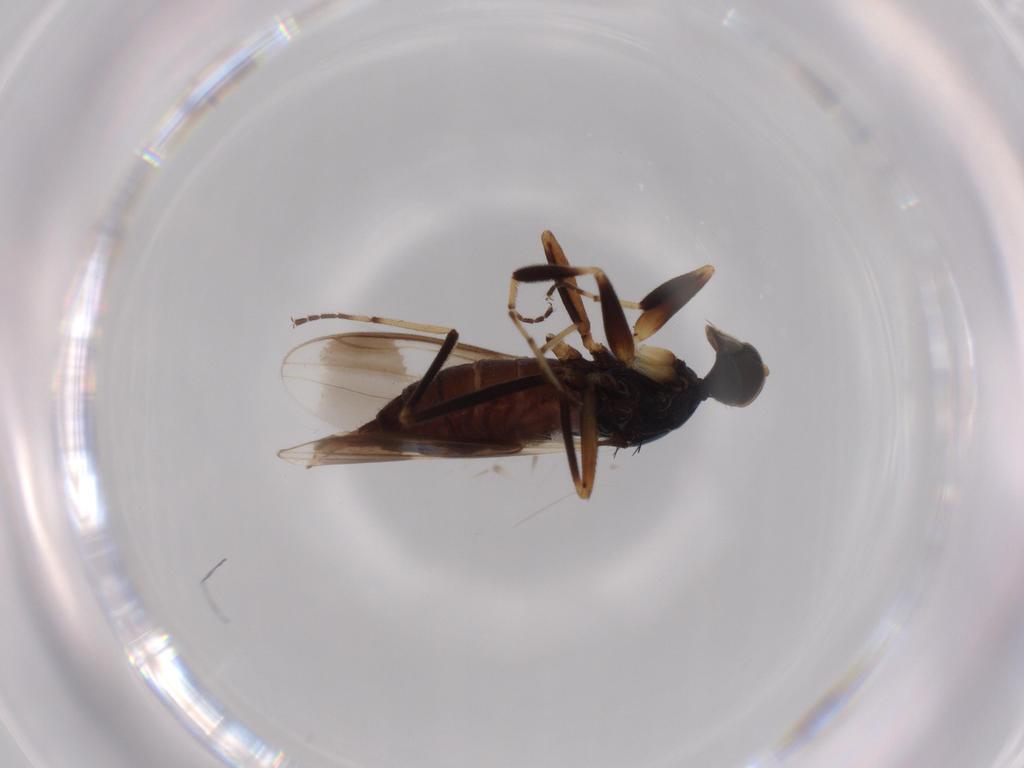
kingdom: Animalia
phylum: Arthropoda
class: Insecta
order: Diptera
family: Hybotidae
